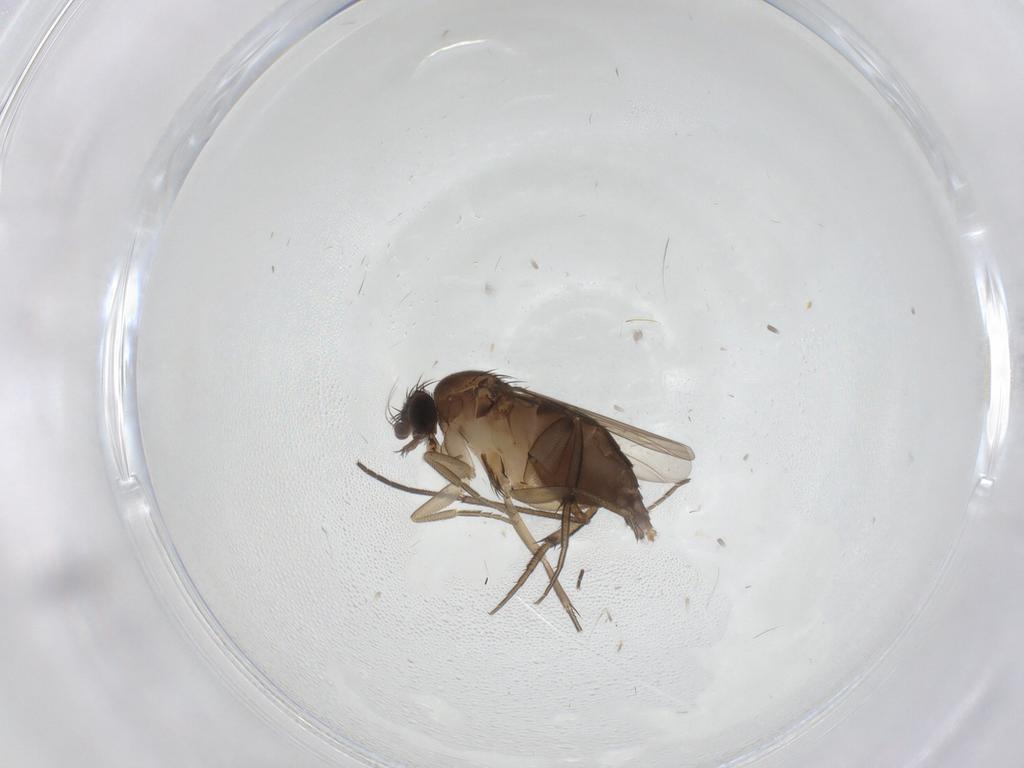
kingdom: Animalia
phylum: Arthropoda
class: Insecta
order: Diptera
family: Phoridae
